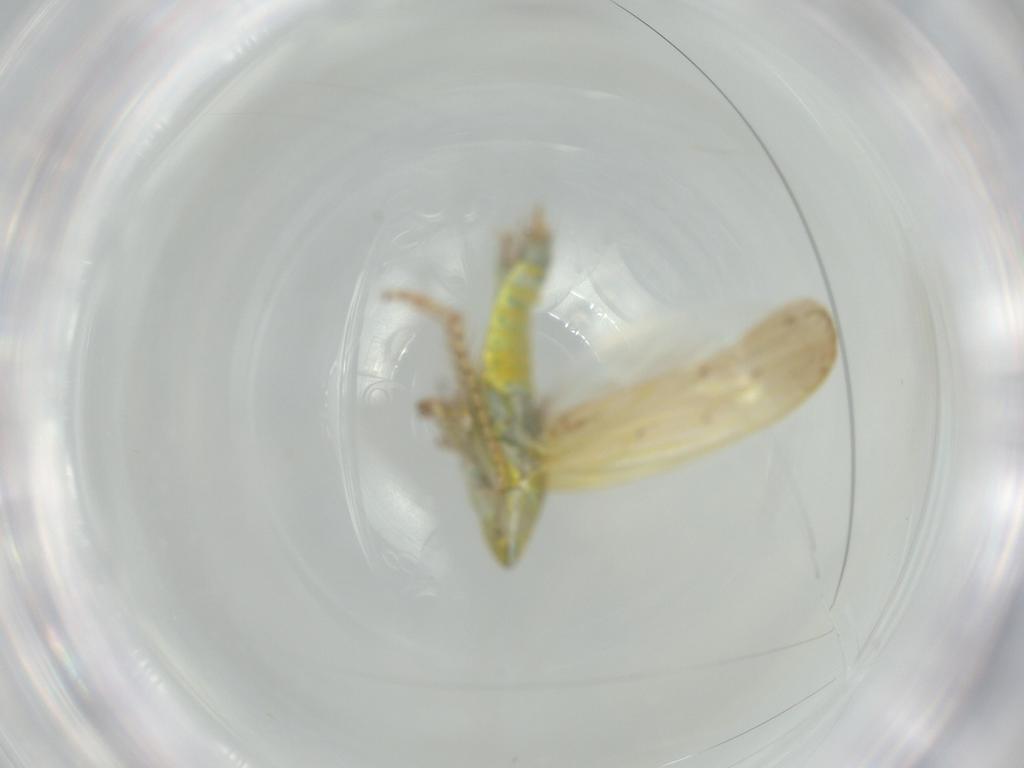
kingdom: Animalia
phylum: Arthropoda
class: Insecta
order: Hemiptera
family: Cicadellidae
